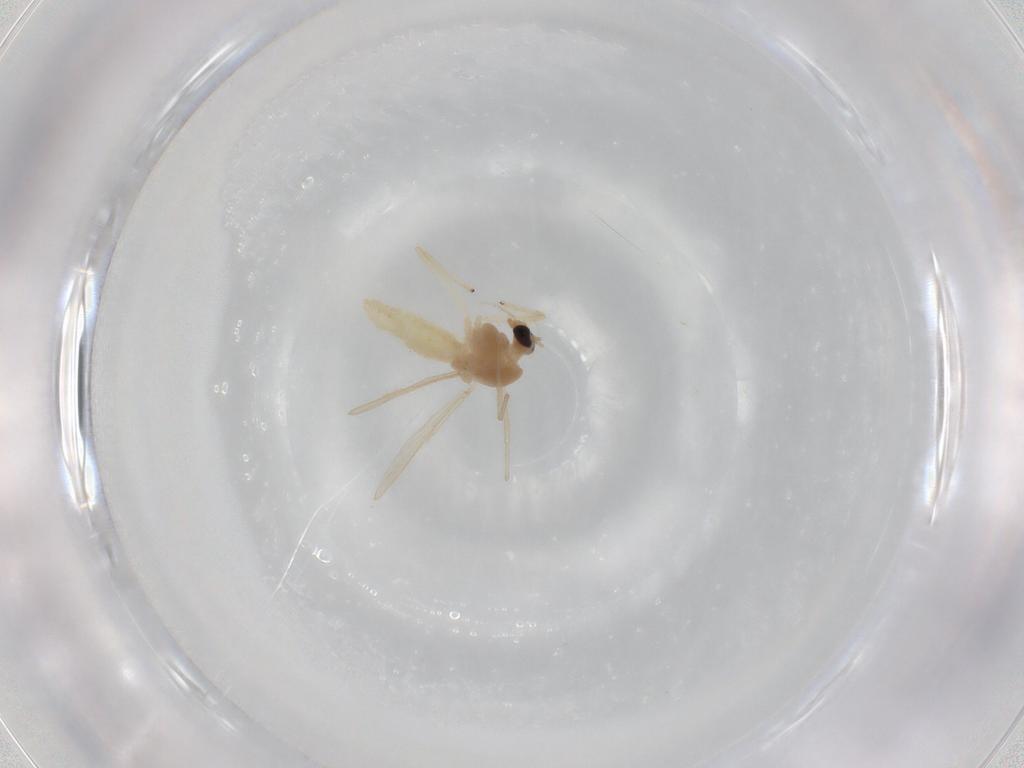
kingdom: Animalia
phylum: Arthropoda
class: Insecta
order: Diptera
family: Chironomidae
